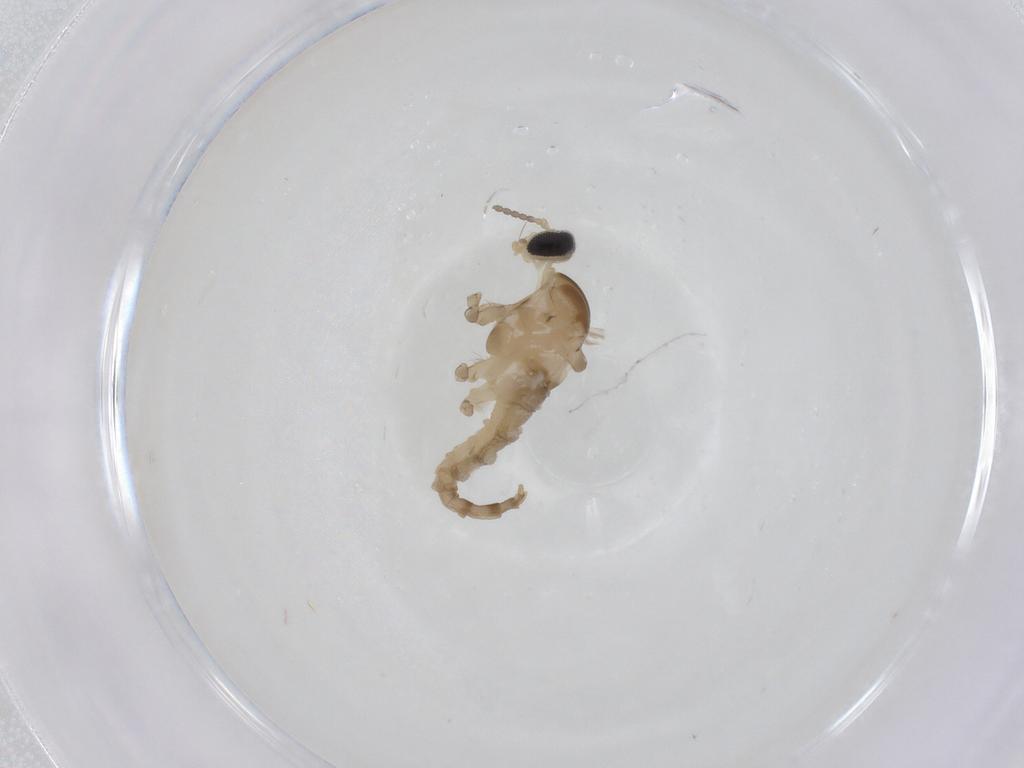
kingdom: Animalia
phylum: Arthropoda
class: Insecta
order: Diptera
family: Cecidomyiidae
